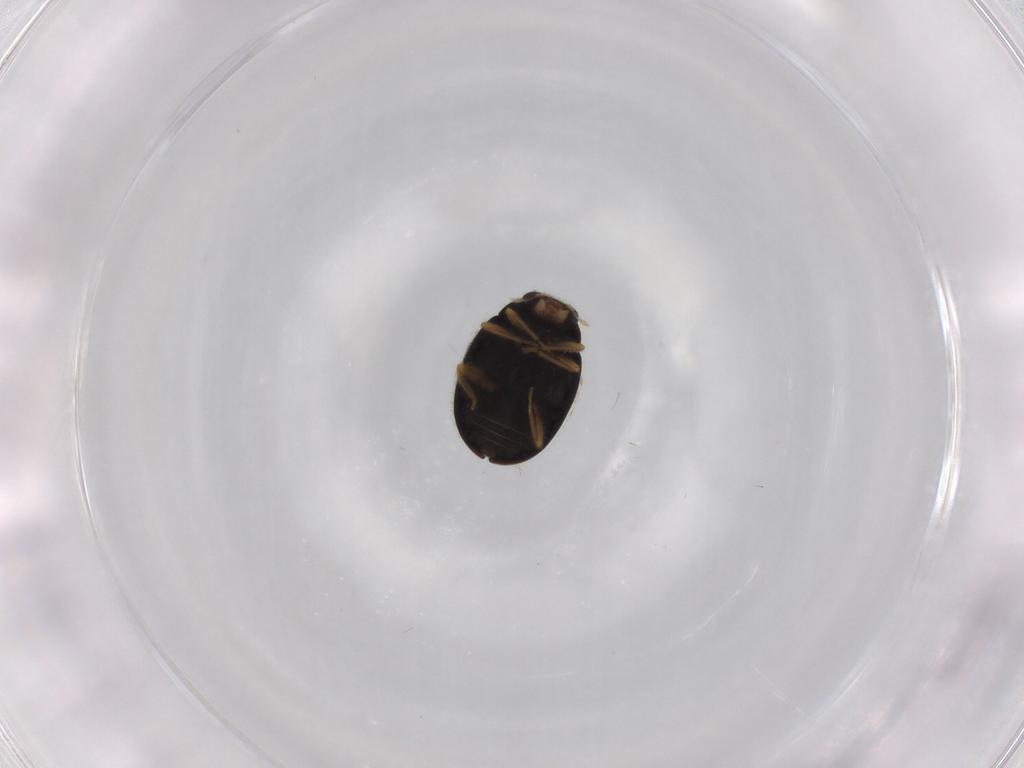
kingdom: Animalia
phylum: Arthropoda
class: Insecta
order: Coleoptera
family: Coccinellidae
